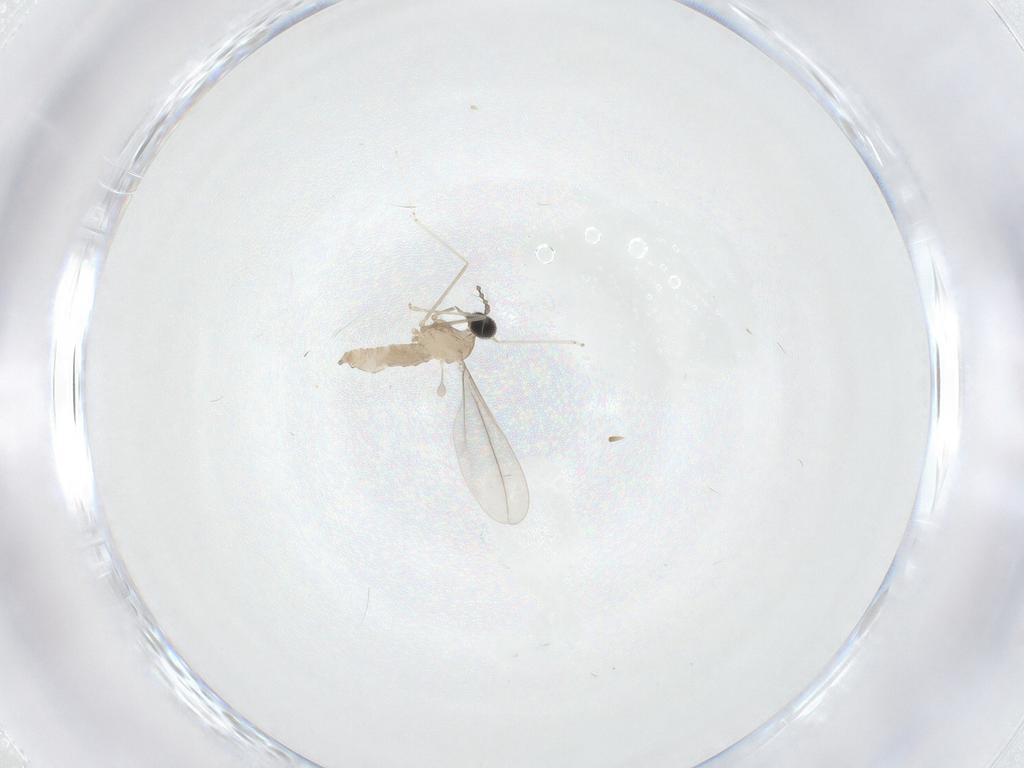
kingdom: Animalia
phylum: Arthropoda
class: Insecta
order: Diptera
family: Cecidomyiidae
